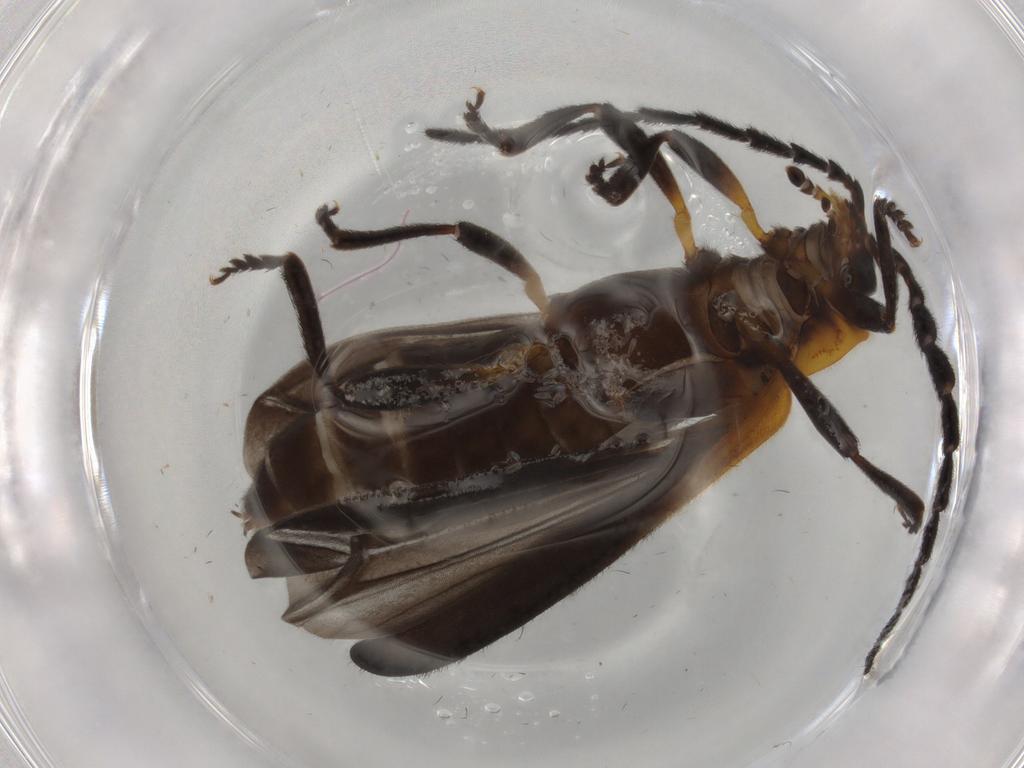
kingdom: Animalia
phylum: Arthropoda
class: Insecta
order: Coleoptera
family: Lycidae
